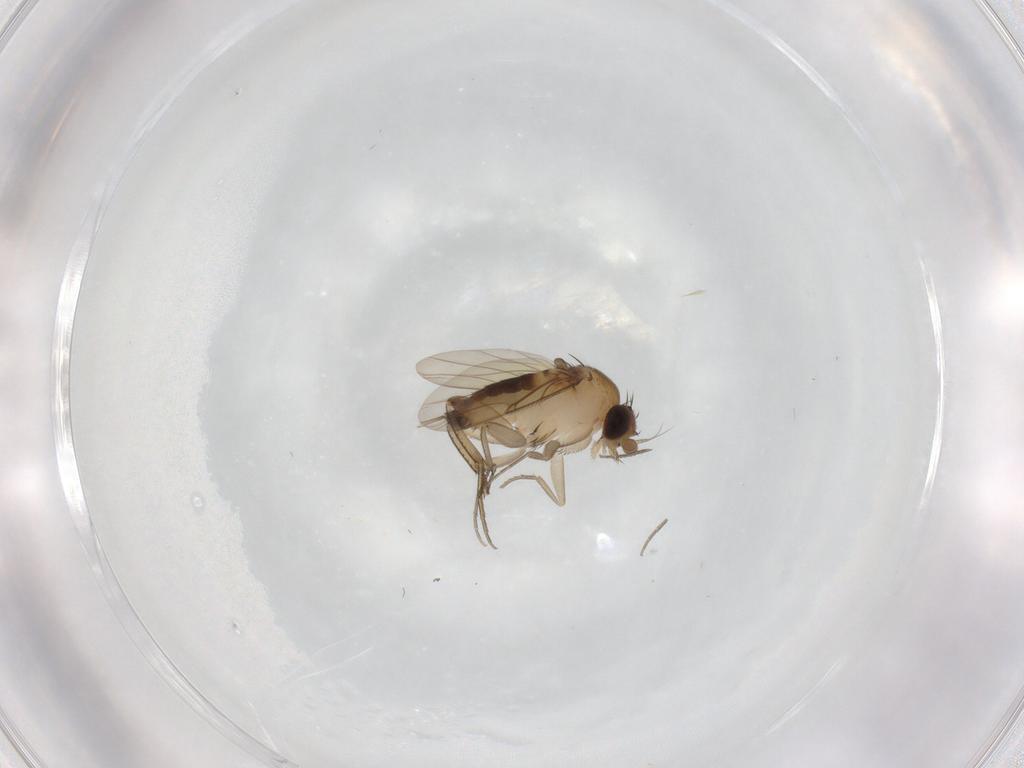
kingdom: Animalia
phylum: Arthropoda
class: Insecta
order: Diptera
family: Phoridae
